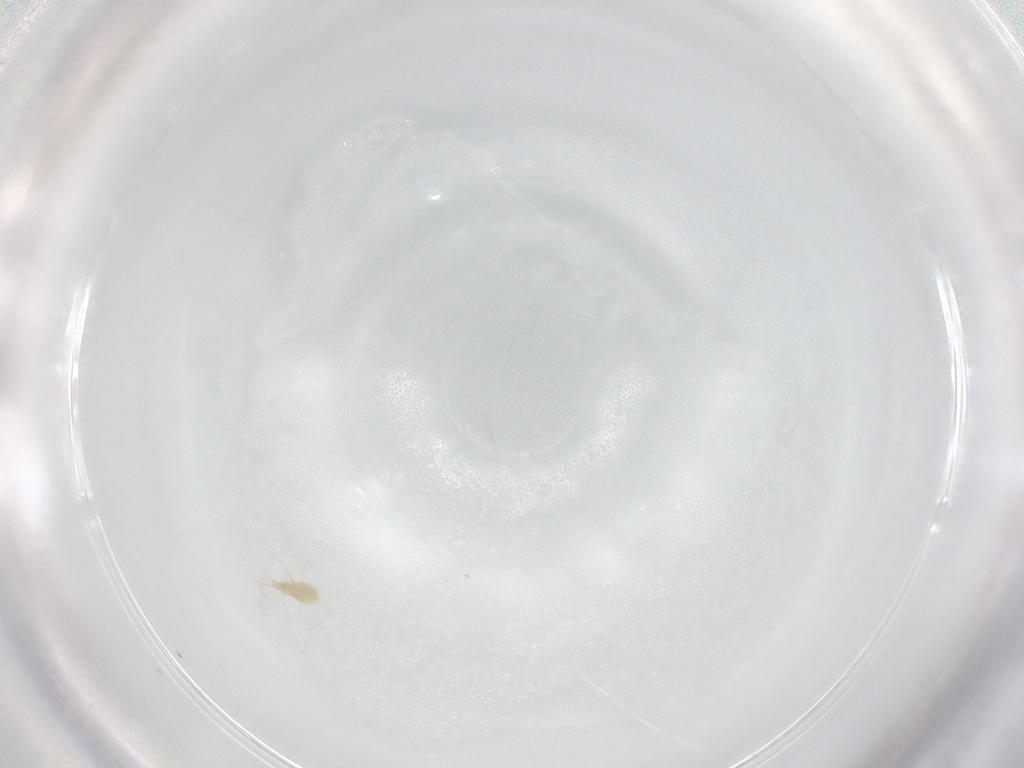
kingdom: Animalia
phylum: Arthropoda
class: Arachnida
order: Trombidiformes
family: Tetranychidae
